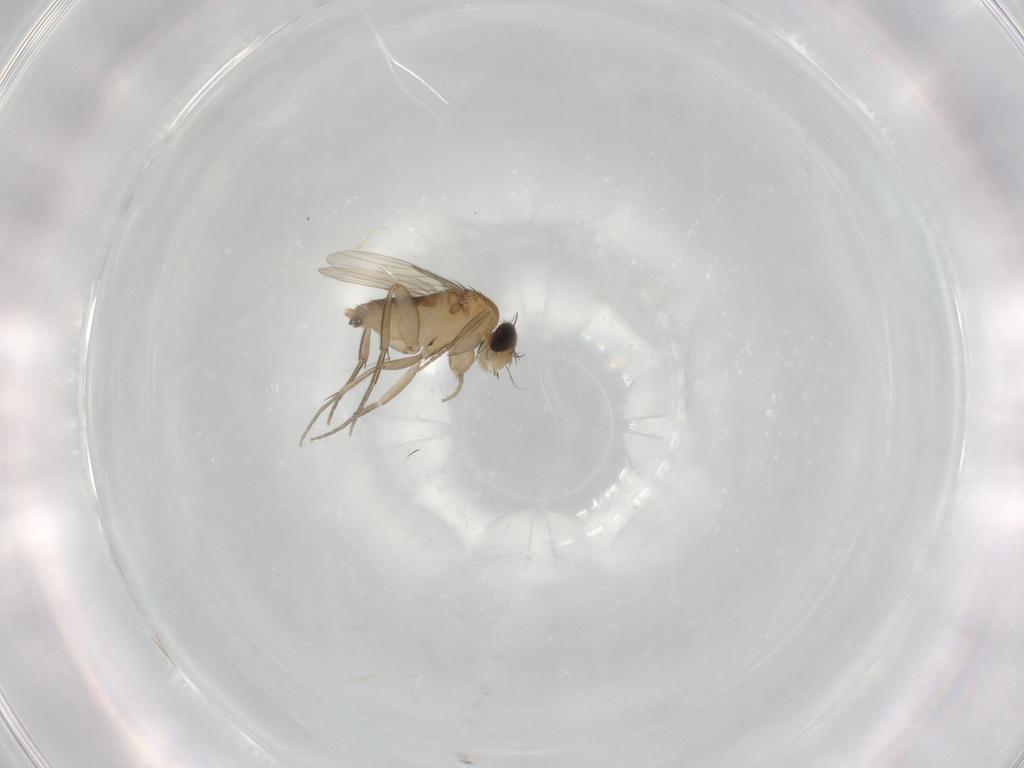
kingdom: Animalia
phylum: Arthropoda
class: Insecta
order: Diptera
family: Phoridae
